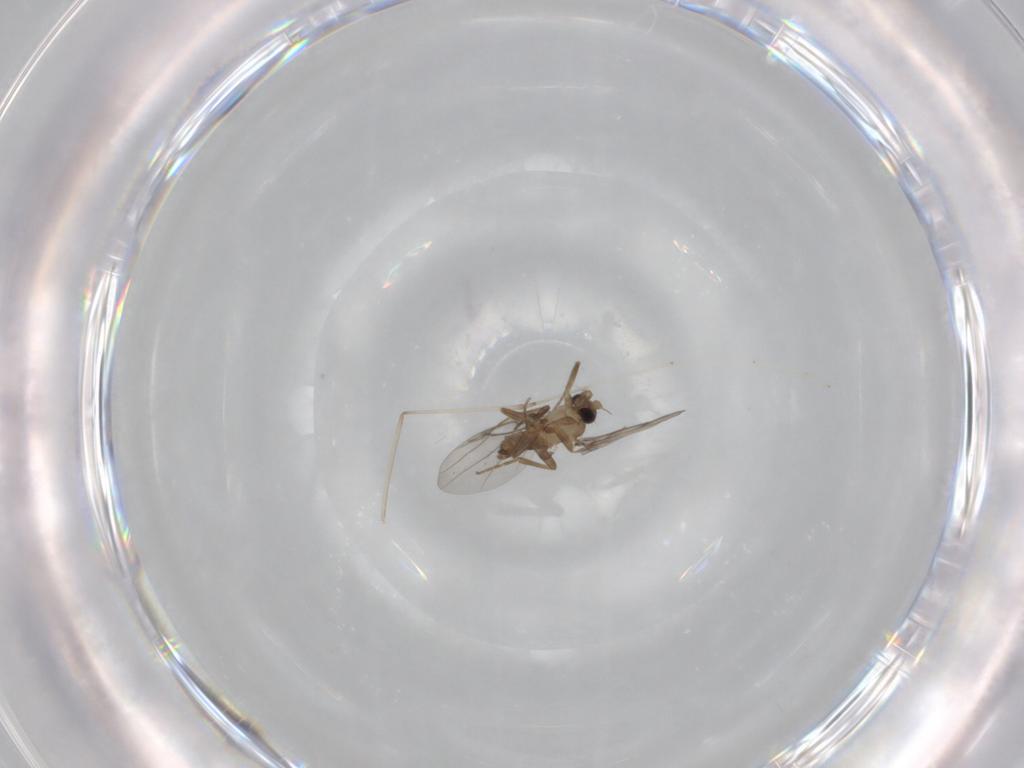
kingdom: Animalia
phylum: Arthropoda
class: Insecta
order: Diptera
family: Cecidomyiidae
